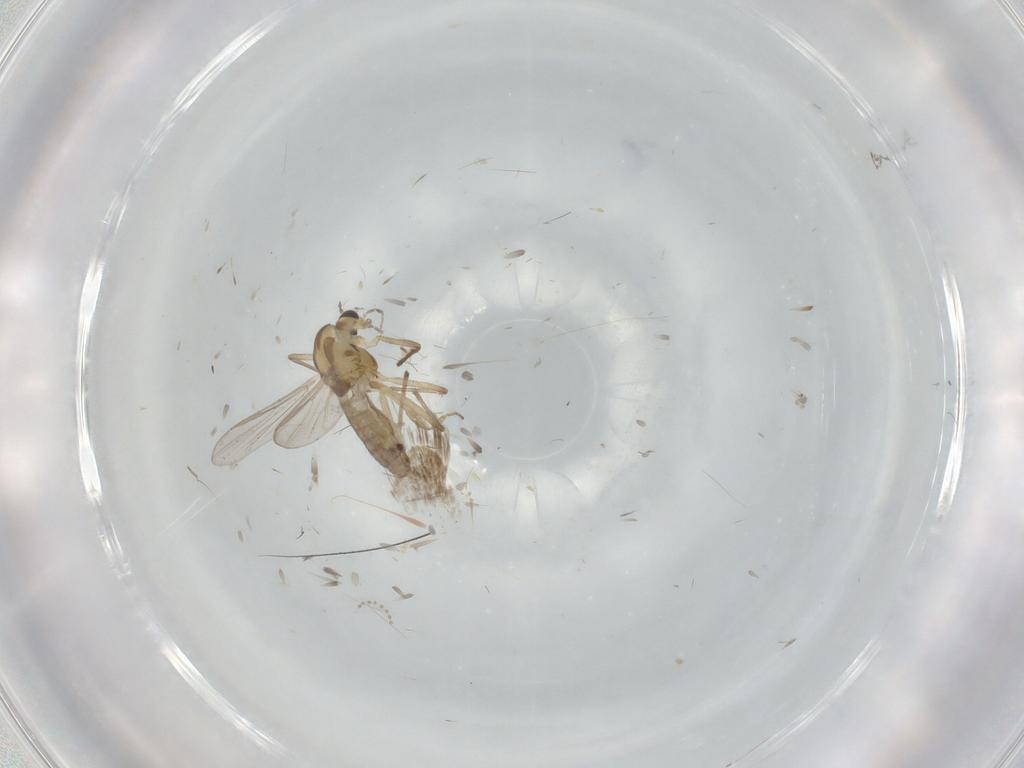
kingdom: Animalia
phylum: Arthropoda
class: Insecta
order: Diptera
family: Chironomidae
